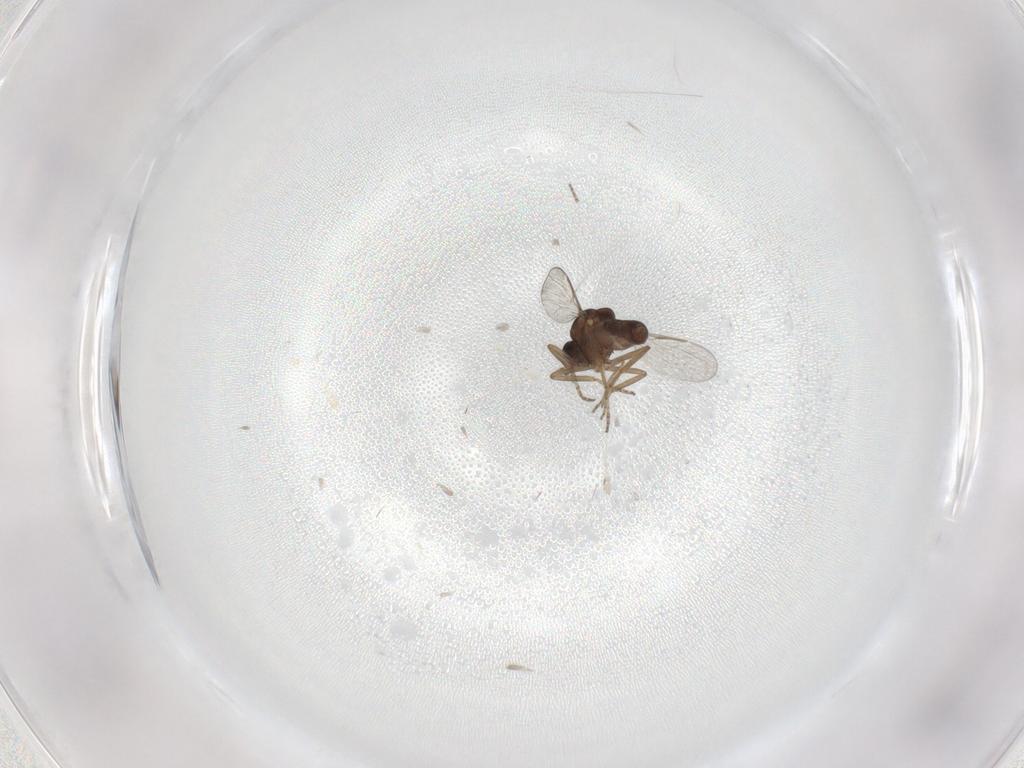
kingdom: Animalia
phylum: Arthropoda
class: Insecta
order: Diptera
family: Ceratopogonidae
